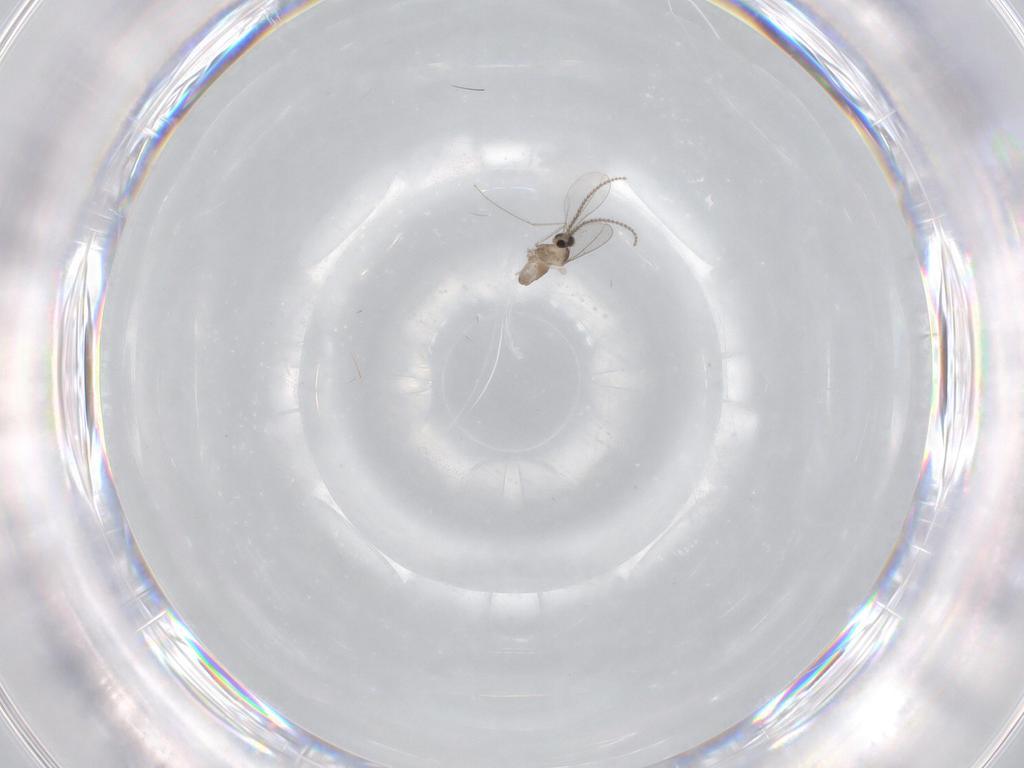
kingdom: Animalia
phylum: Arthropoda
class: Insecta
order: Diptera
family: Cecidomyiidae
